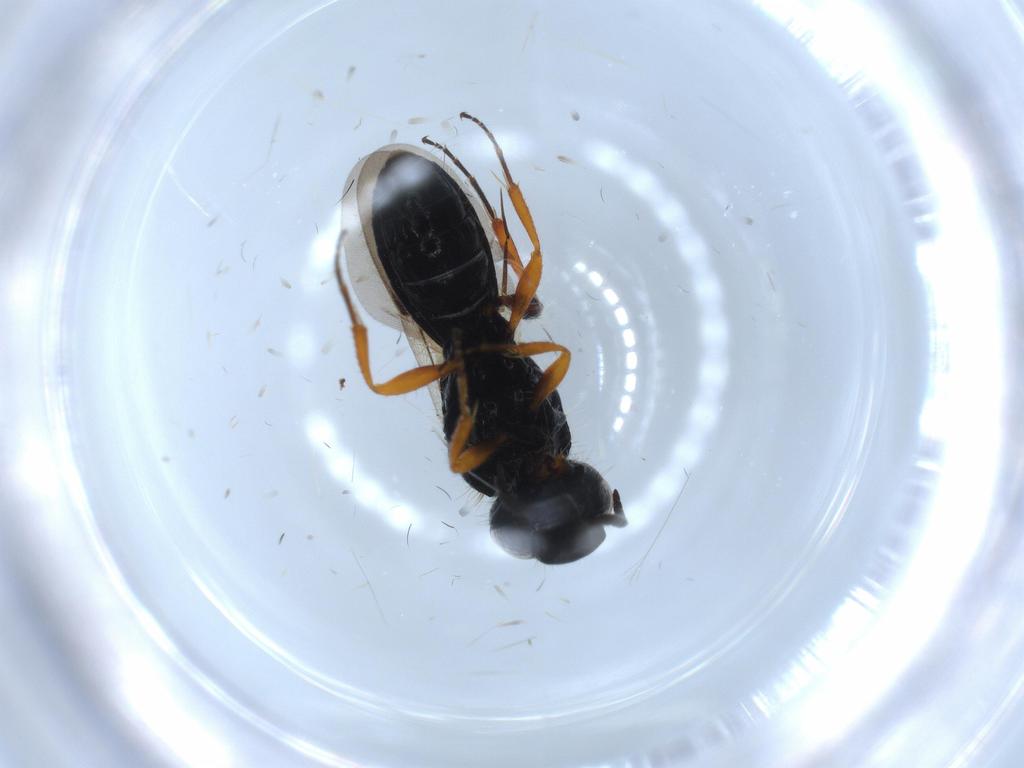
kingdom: Animalia
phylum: Arthropoda
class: Insecta
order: Hymenoptera
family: Scelionidae
